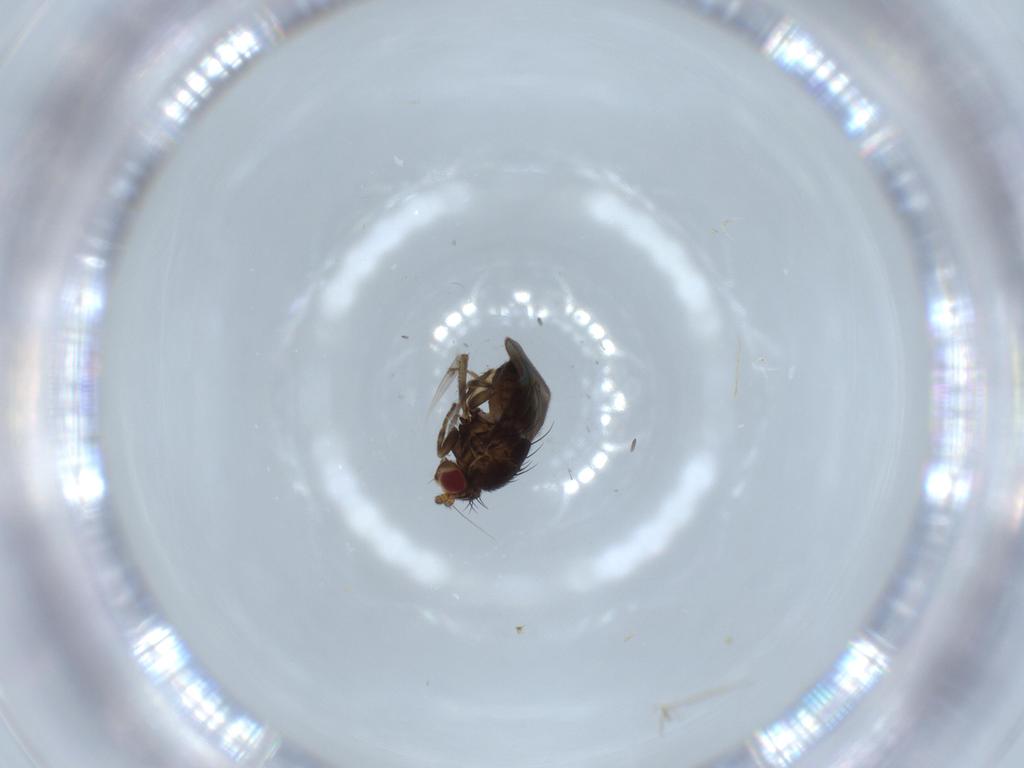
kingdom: Animalia
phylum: Arthropoda
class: Insecta
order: Diptera
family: Sphaeroceridae
